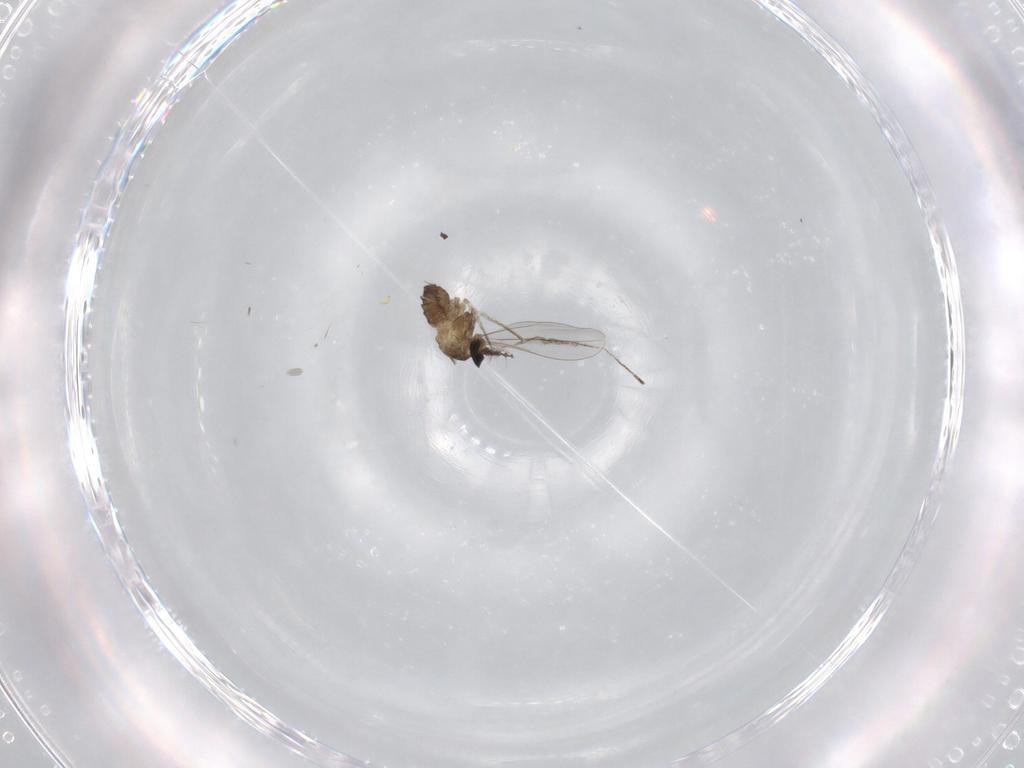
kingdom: Animalia
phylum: Arthropoda
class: Insecta
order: Diptera
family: Cecidomyiidae
